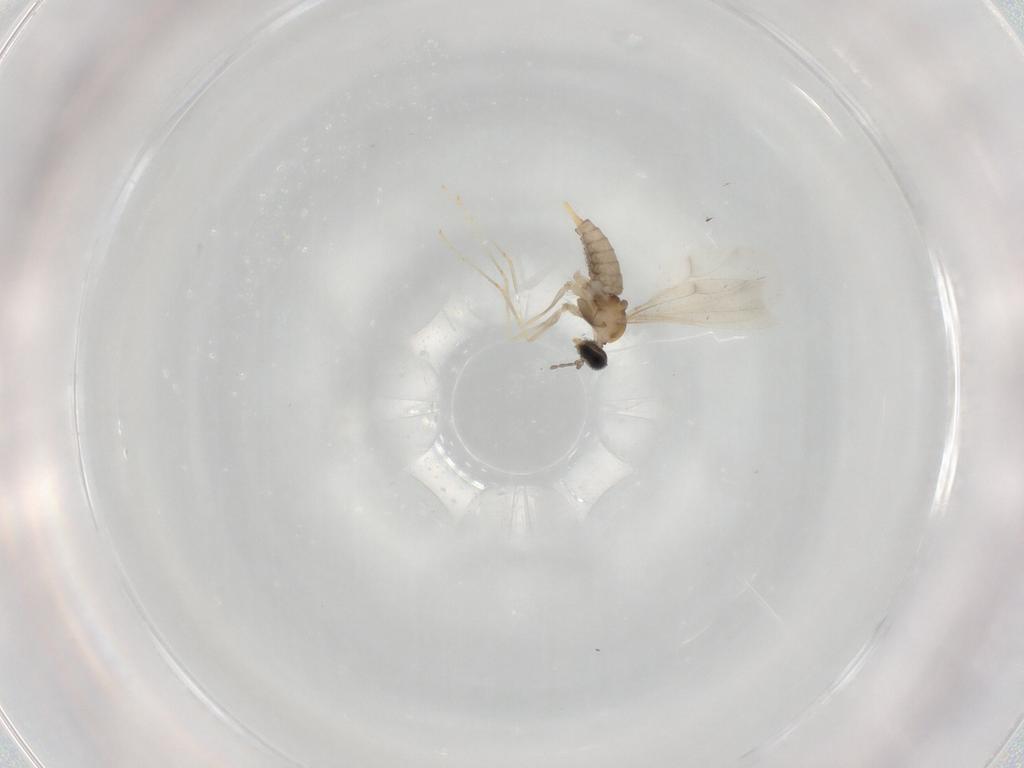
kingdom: Animalia
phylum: Arthropoda
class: Insecta
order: Diptera
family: Cecidomyiidae
